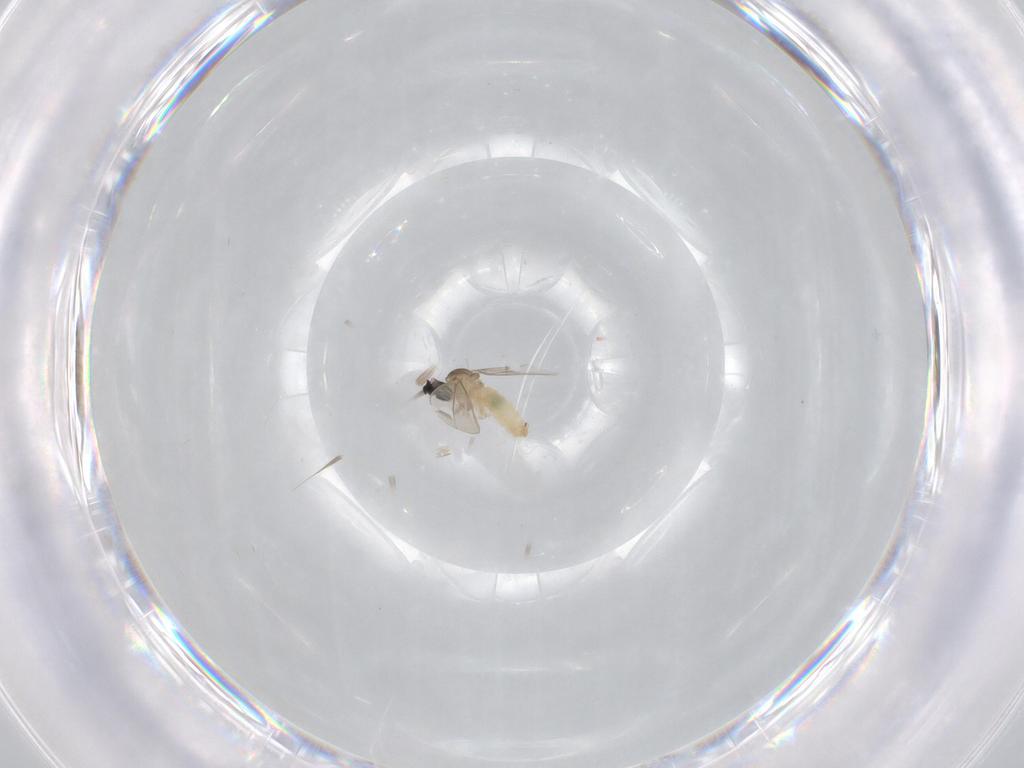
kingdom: Animalia
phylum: Arthropoda
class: Insecta
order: Diptera
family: Cecidomyiidae
